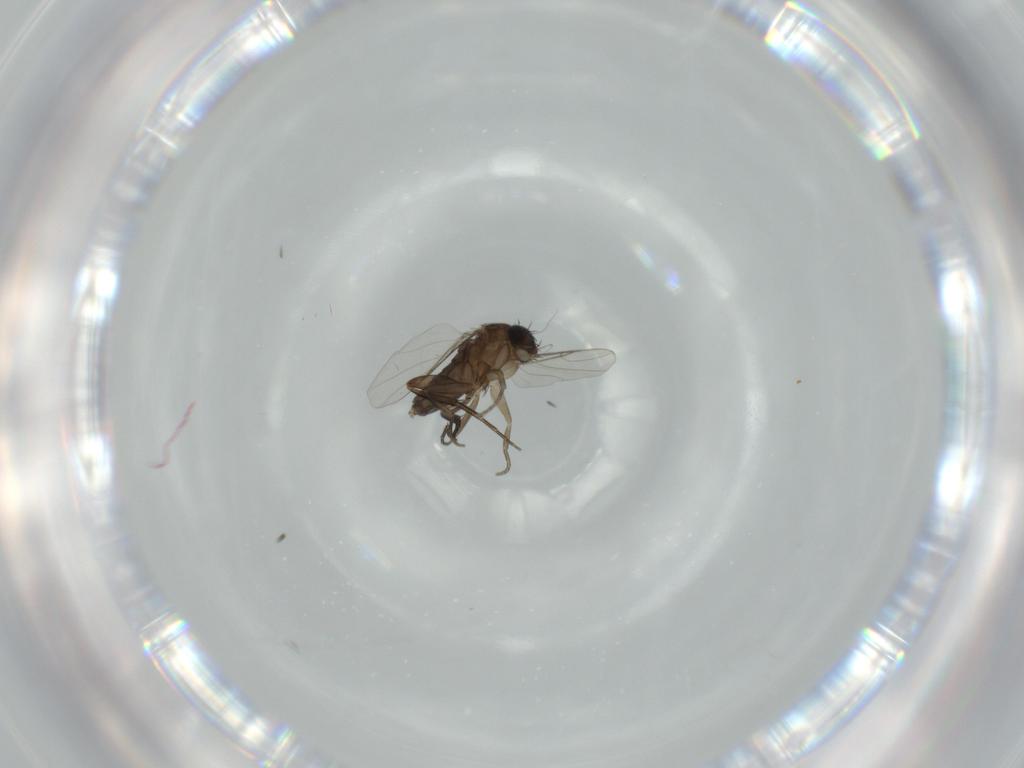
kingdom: Animalia
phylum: Arthropoda
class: Insecta
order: Diptera
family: Phoridae
